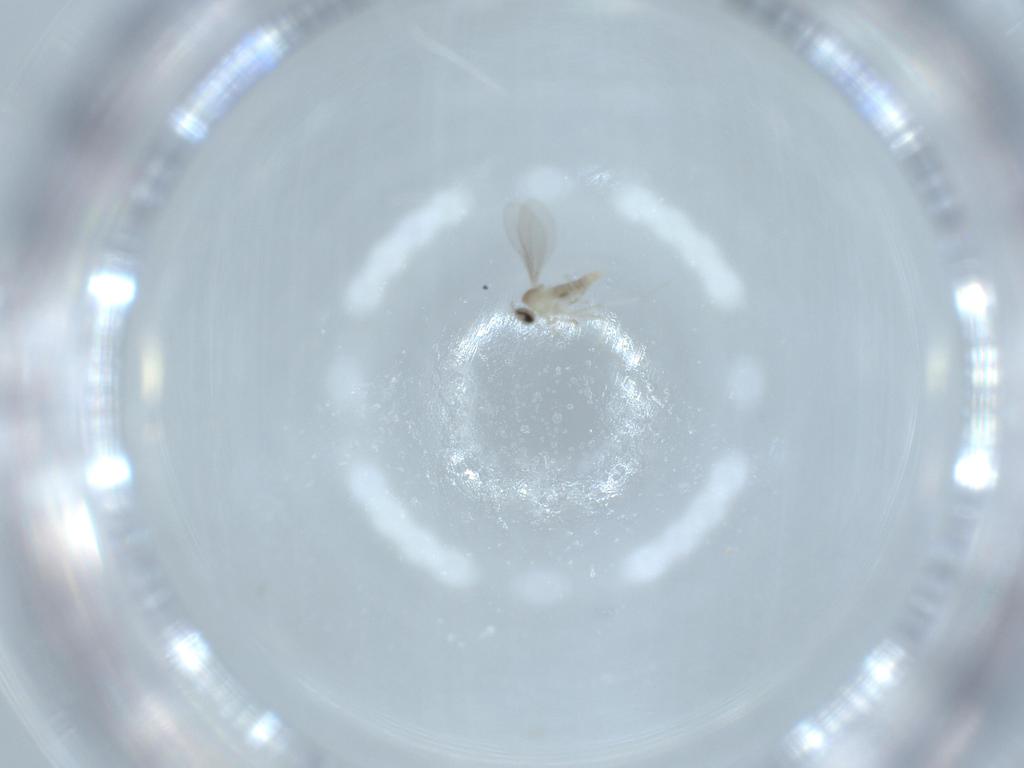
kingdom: Animalia
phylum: Arthropoda
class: Insecta
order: Diptera
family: Cecidomyiidae
